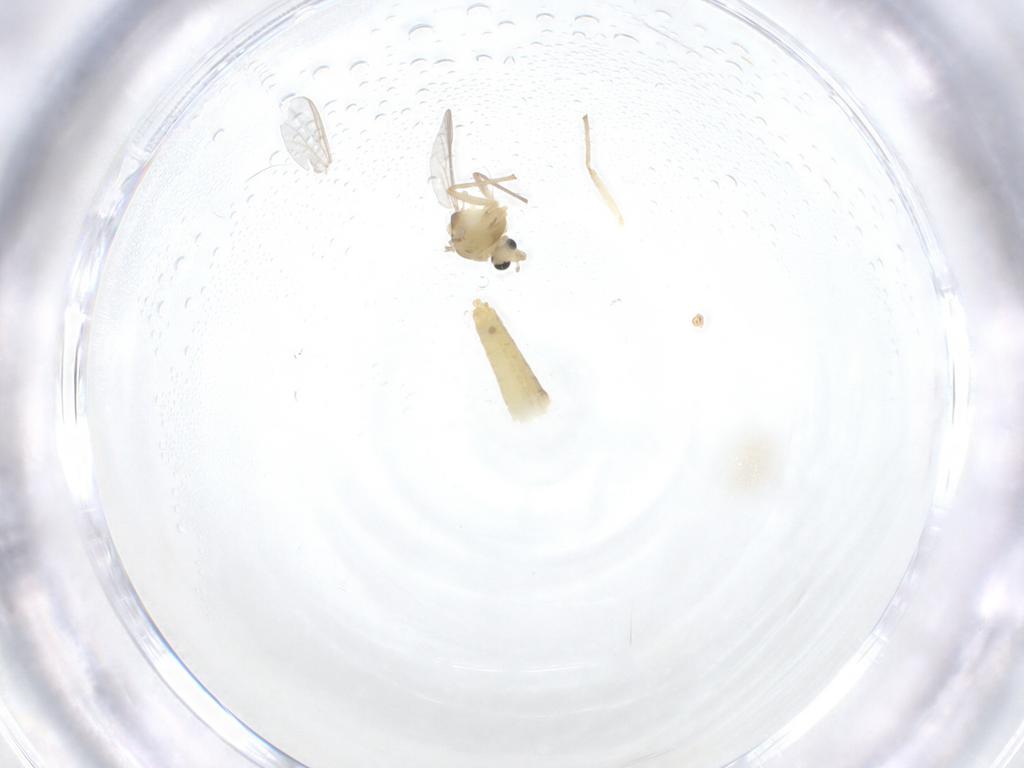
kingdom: Animalia
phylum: Arthropoda
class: Insecta
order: Diptera
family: Chironomidae
